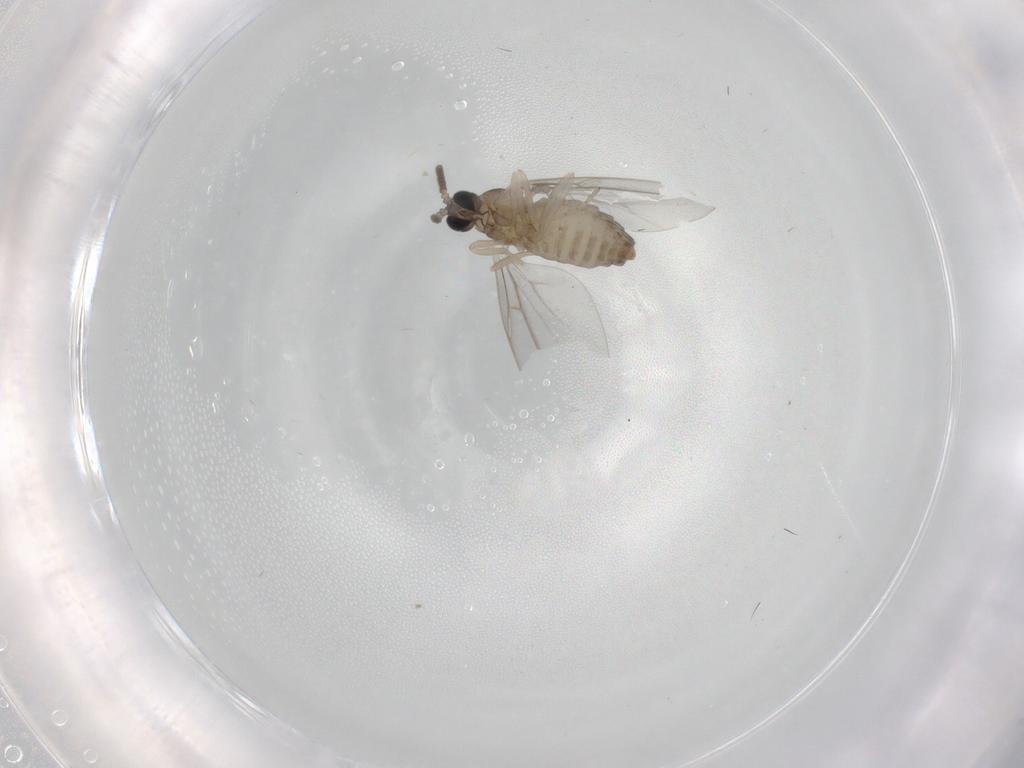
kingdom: Animalia
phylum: Arthropoda
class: Insecta
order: Diptera
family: Cecidomyiidae
